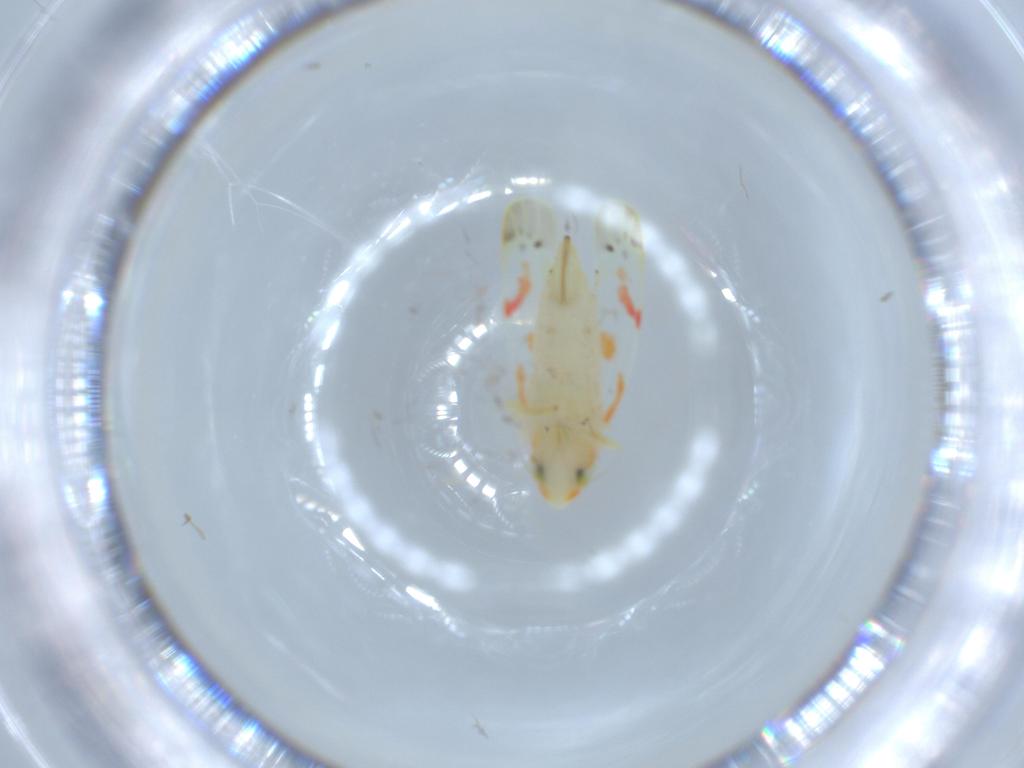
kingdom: Animalia
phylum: Arthropoda
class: Insecta
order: Hemiptera
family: Cicadellidae
